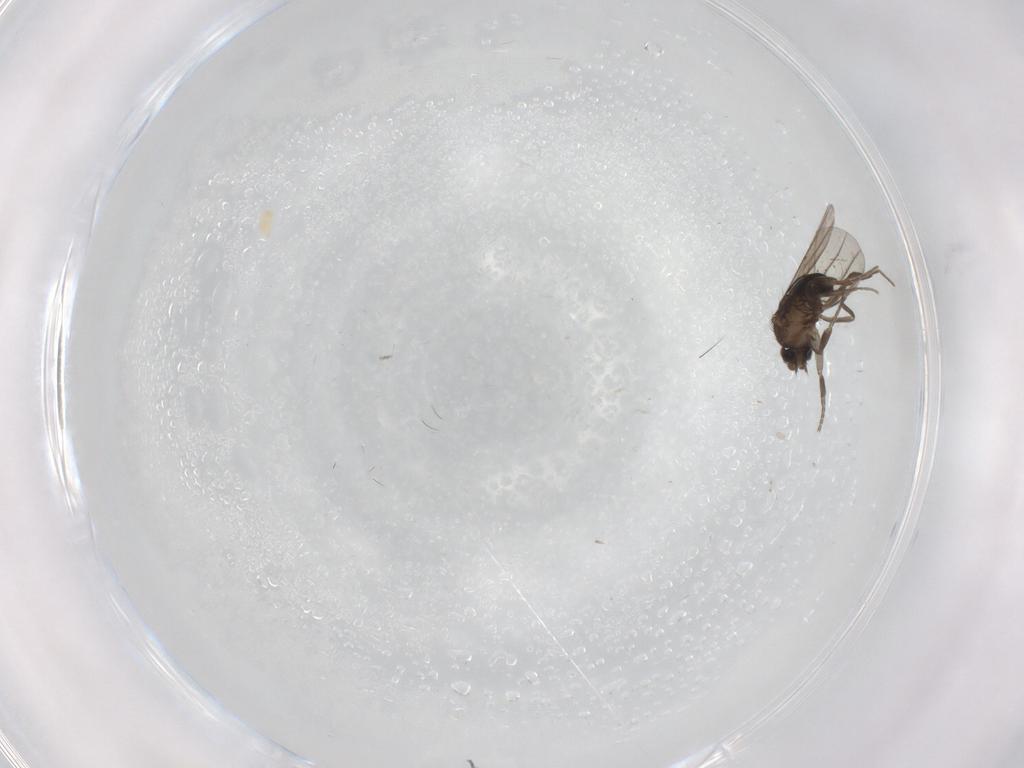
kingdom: Animalia
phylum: Arthropoda
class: Insecta
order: Diptera
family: Phoridae
